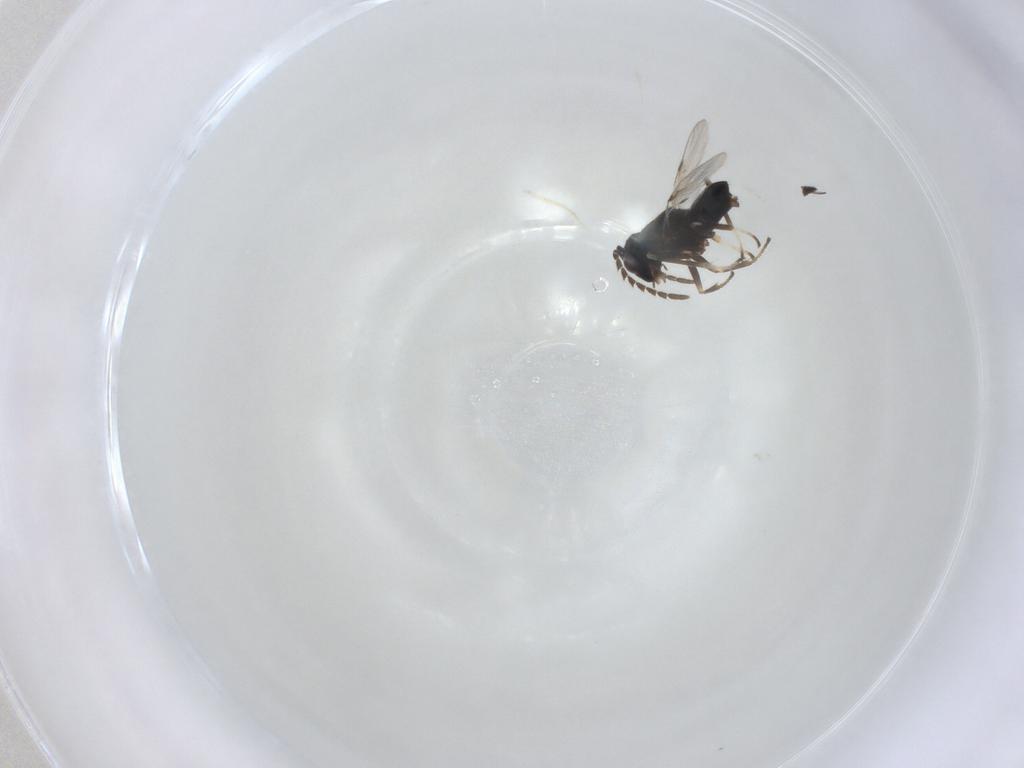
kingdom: Animalia
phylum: Arthropoda
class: Insecta
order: Hymenoptera
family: Encyrtidae
